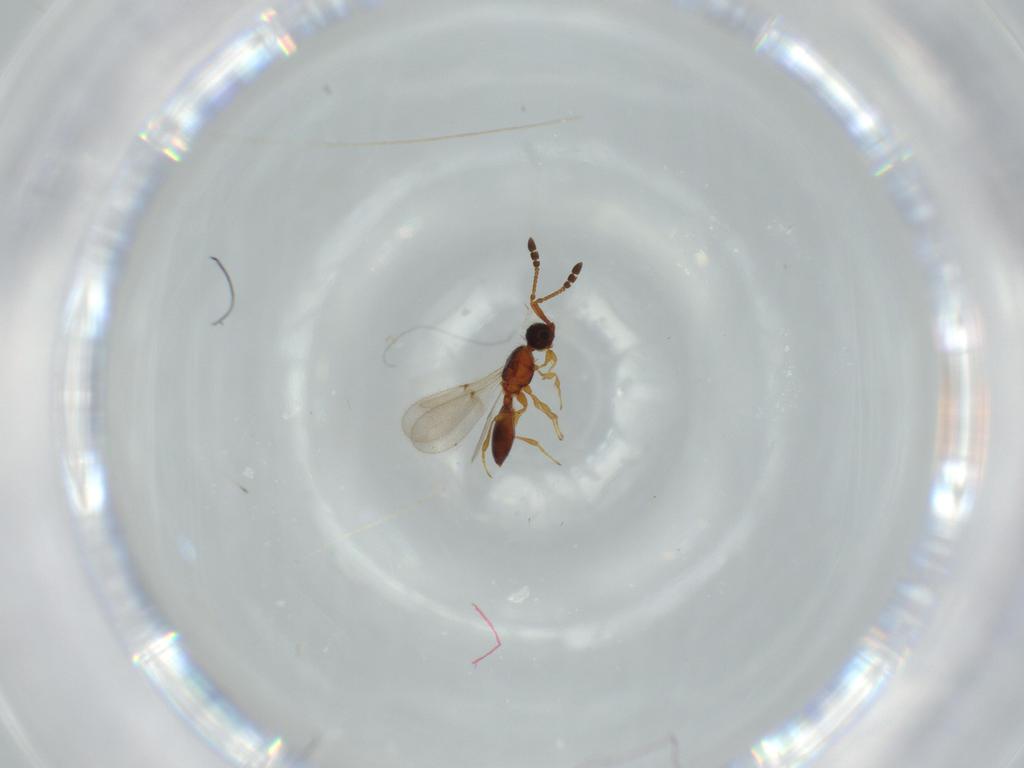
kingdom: Animalia
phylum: Arthropoda
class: Insecta
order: Hymenoptera
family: Diapriidae
